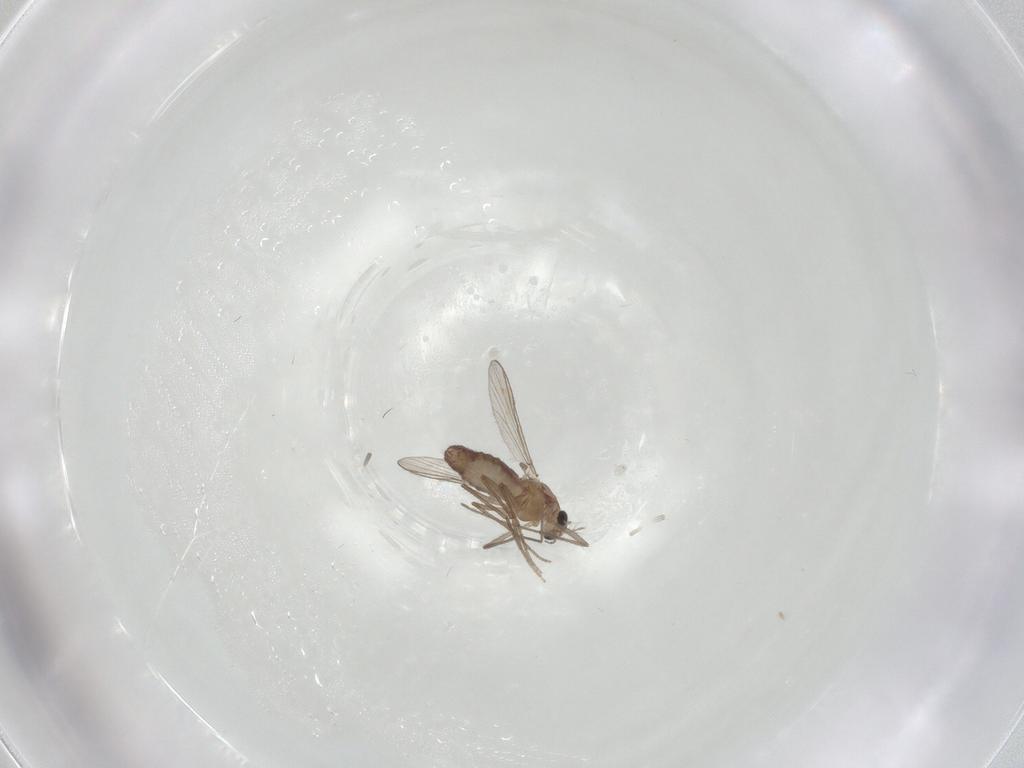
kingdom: Animalia
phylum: Arthropoda
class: Insecta
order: Diptera
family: Chironomidae
